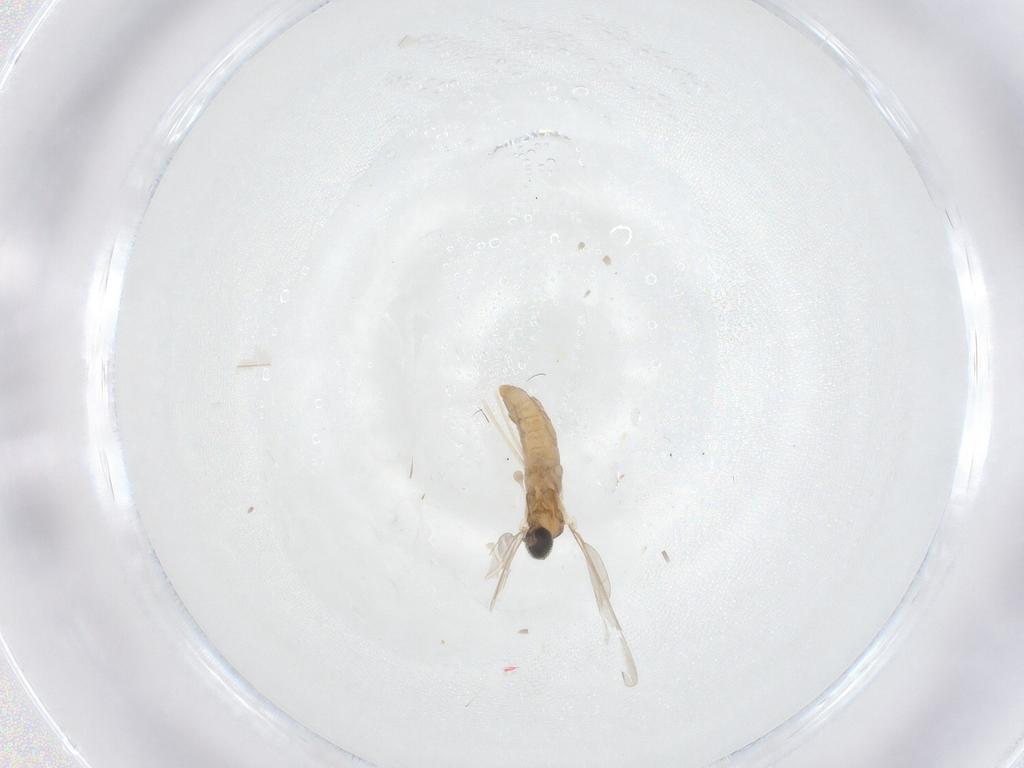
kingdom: Animalia
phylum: Arthropoda
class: Insecta
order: Diptera
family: Cecidomyiidae
